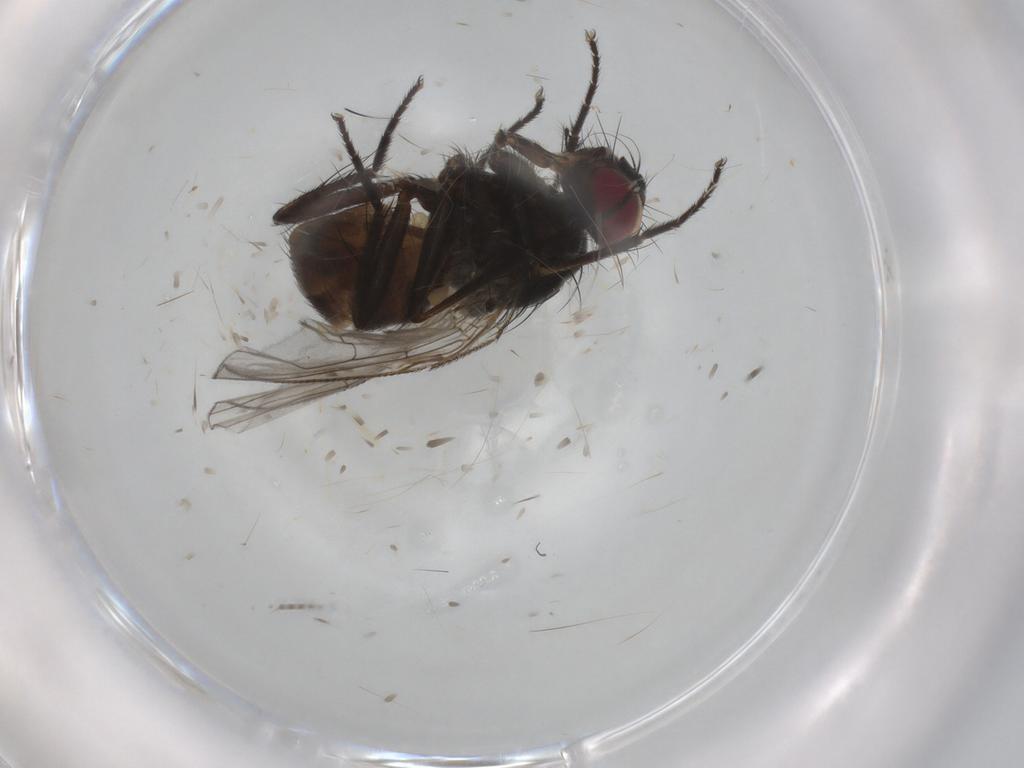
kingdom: Animalia
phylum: Arthropoda
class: Insecta
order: Diptera
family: Muscidae
